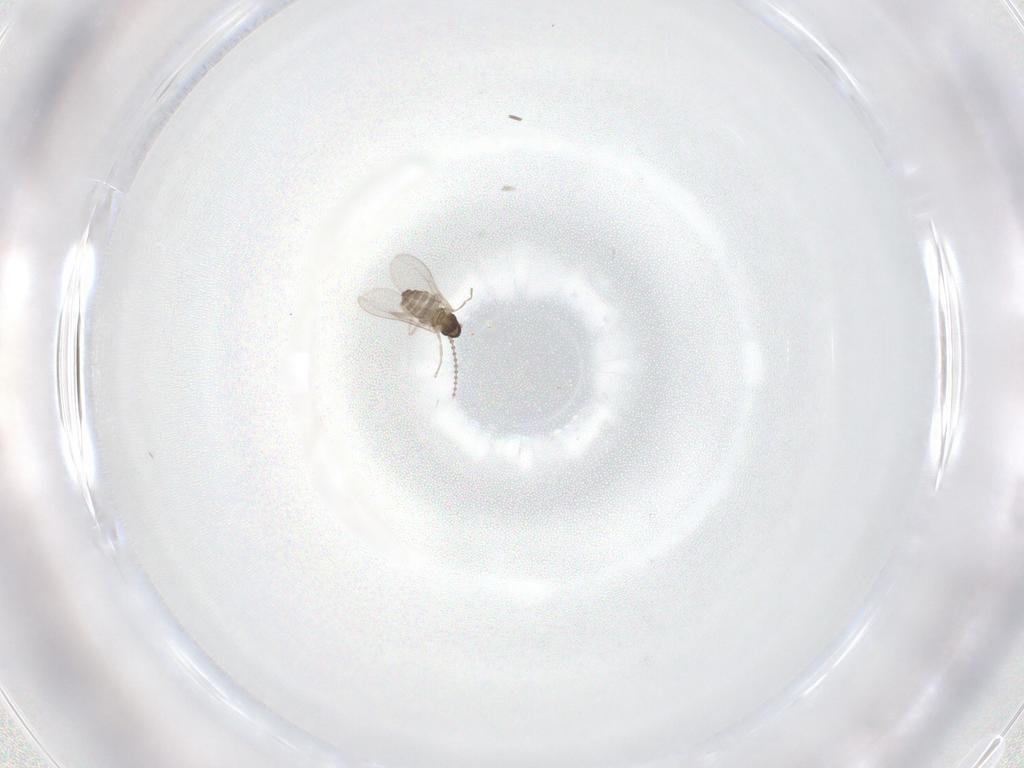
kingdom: Animalia
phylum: Arthropoda
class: Insecta
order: Diptera
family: Cecidomyiidae
